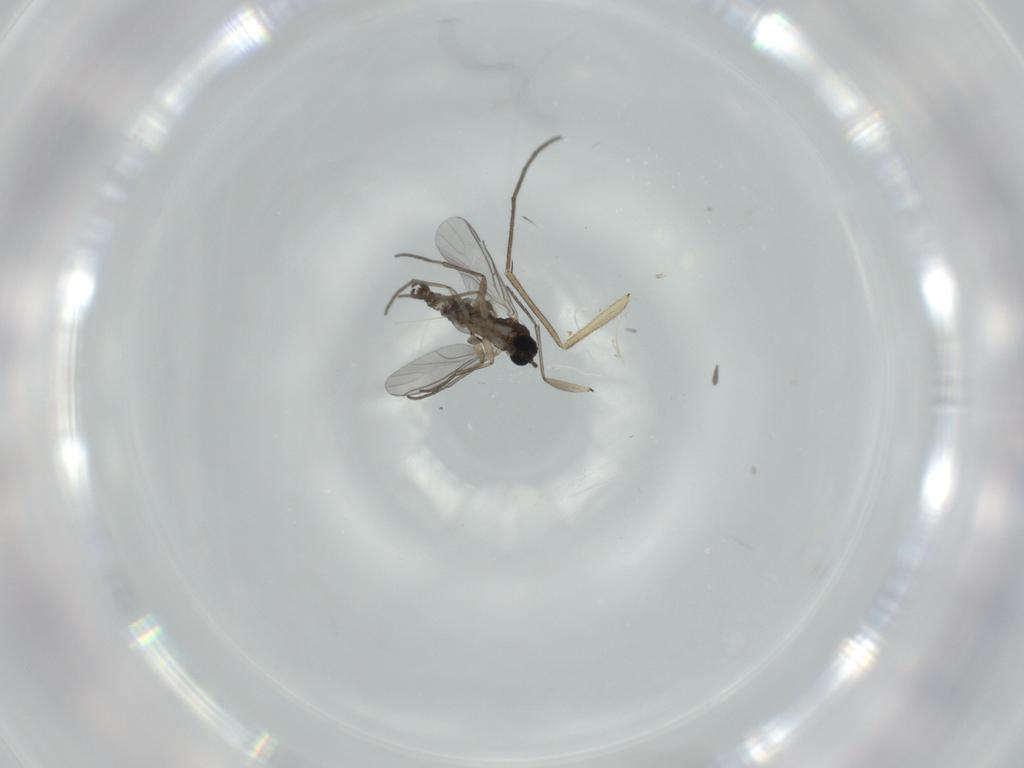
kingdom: Animalia
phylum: Arthropoda
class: Insecta
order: Diptera
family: Sciaridae
